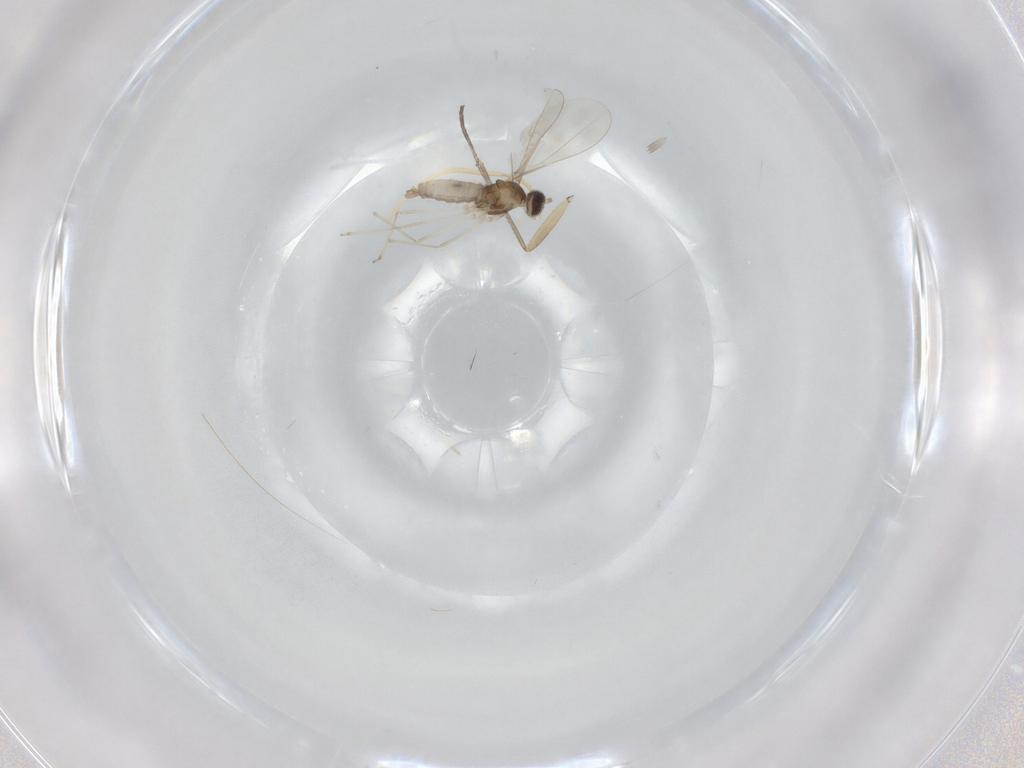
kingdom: Animalia
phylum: Arthropoda
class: Insecta
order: Diptera
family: Cecidomyiidae
